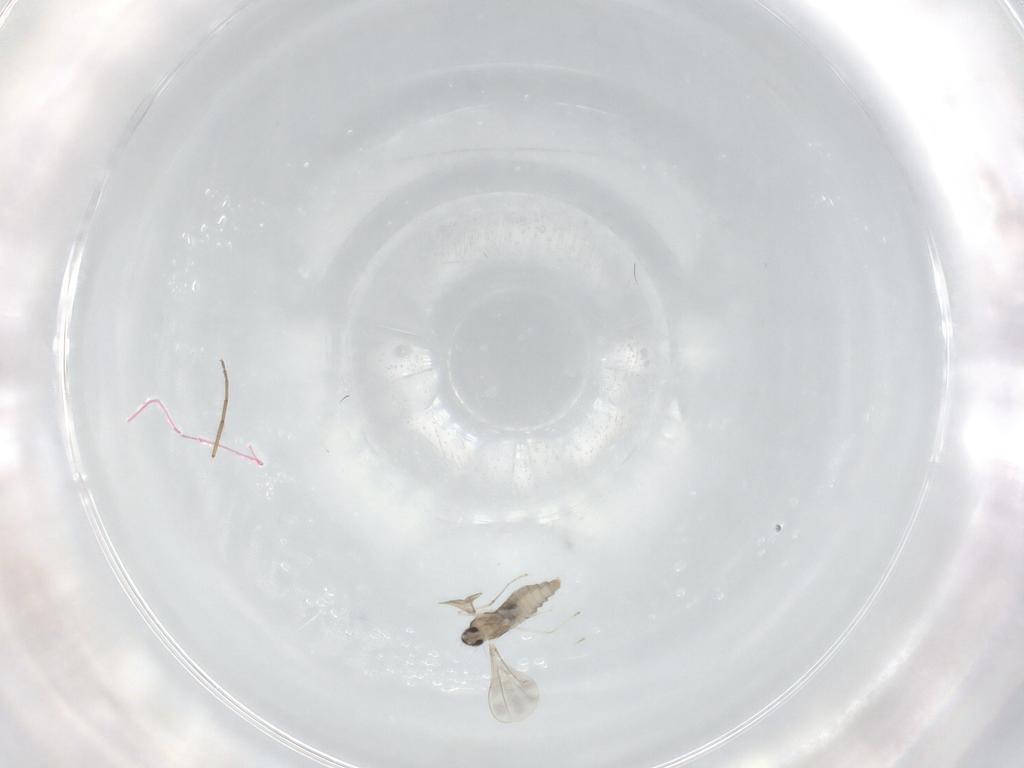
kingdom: Animalia
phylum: Arthropoda
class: Insecta
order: Diptera
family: Cecidomyiidae
